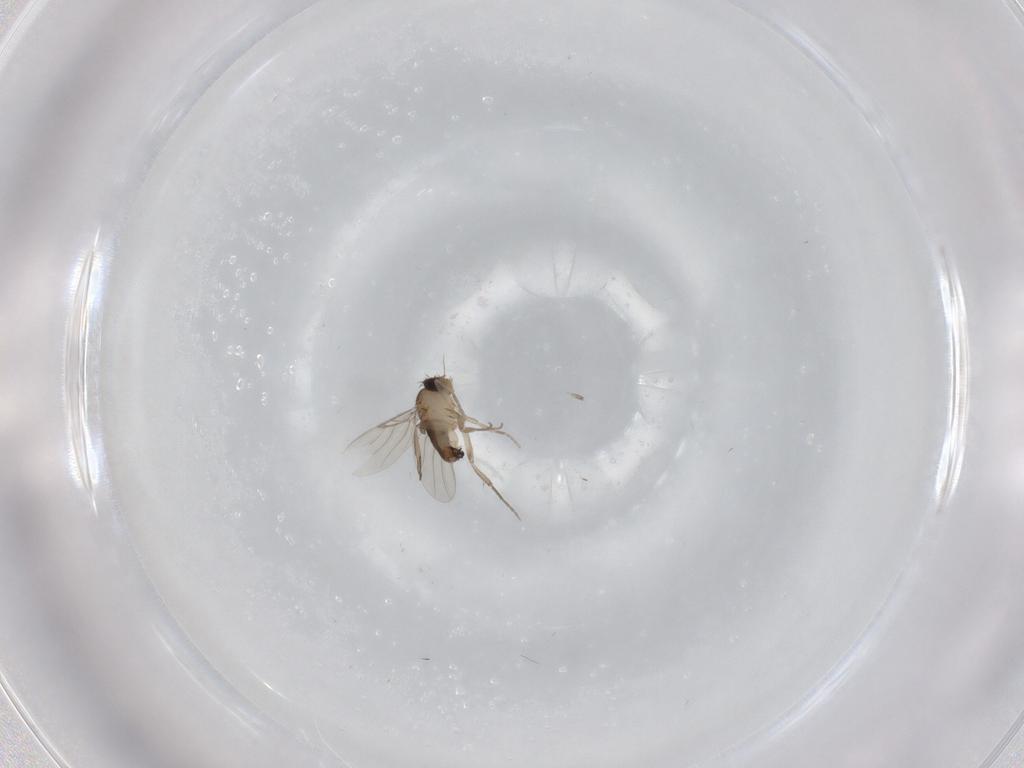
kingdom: Animalia
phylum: Arthropoda
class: Insecta
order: Diptera
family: Phoridae
